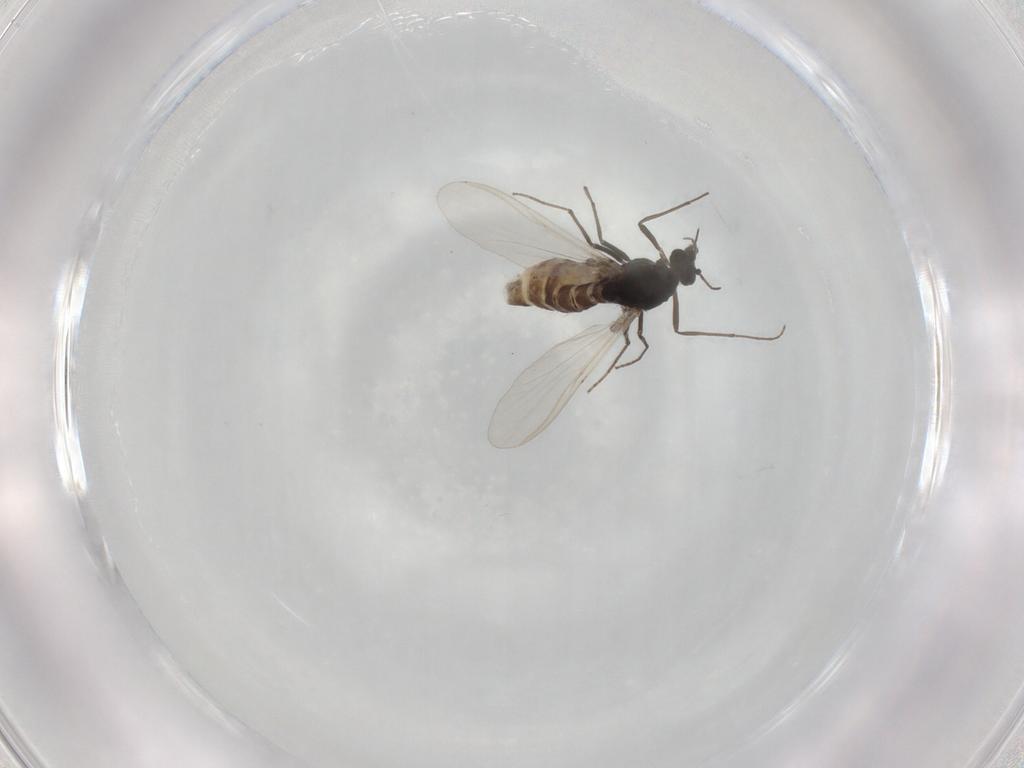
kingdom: Animalia
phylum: Arthropoda
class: Insecta
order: Diptera
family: Chironomidae
